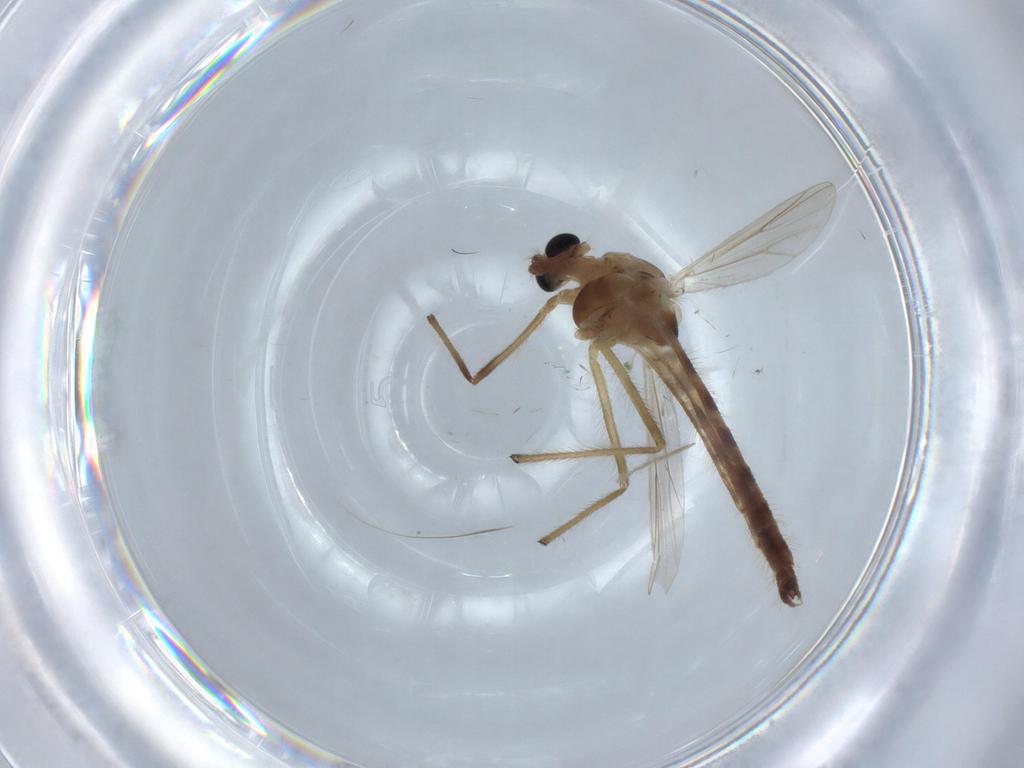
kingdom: Animalia
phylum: Arthropoda
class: Insecta
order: Diptera
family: Chironomidae
